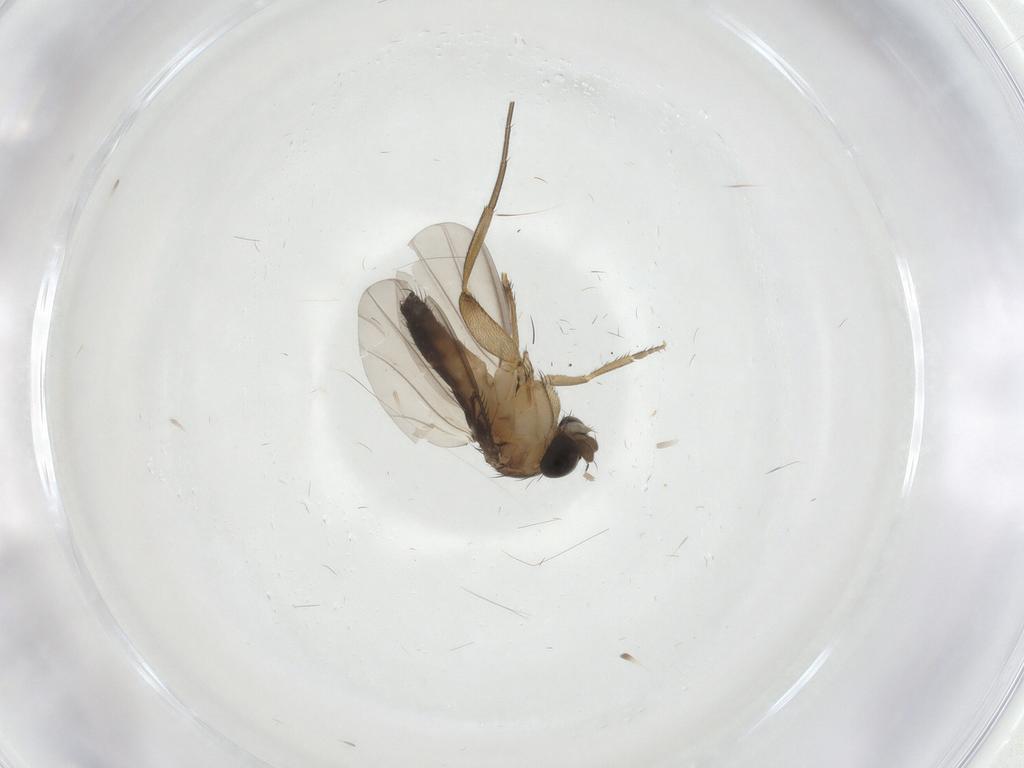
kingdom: Animalia
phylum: Arthropoda
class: Insecta
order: Diptera
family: Phoridae
